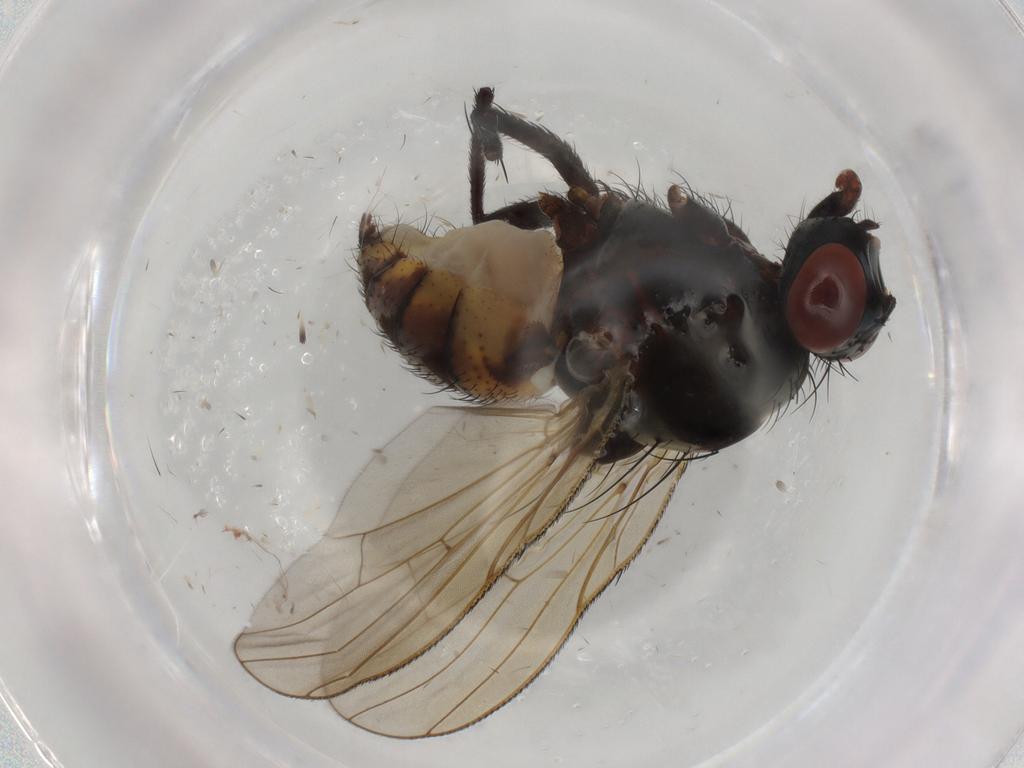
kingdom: Animalia
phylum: Arthropoda
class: Insecta
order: Diptera
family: Anthomyiidae
